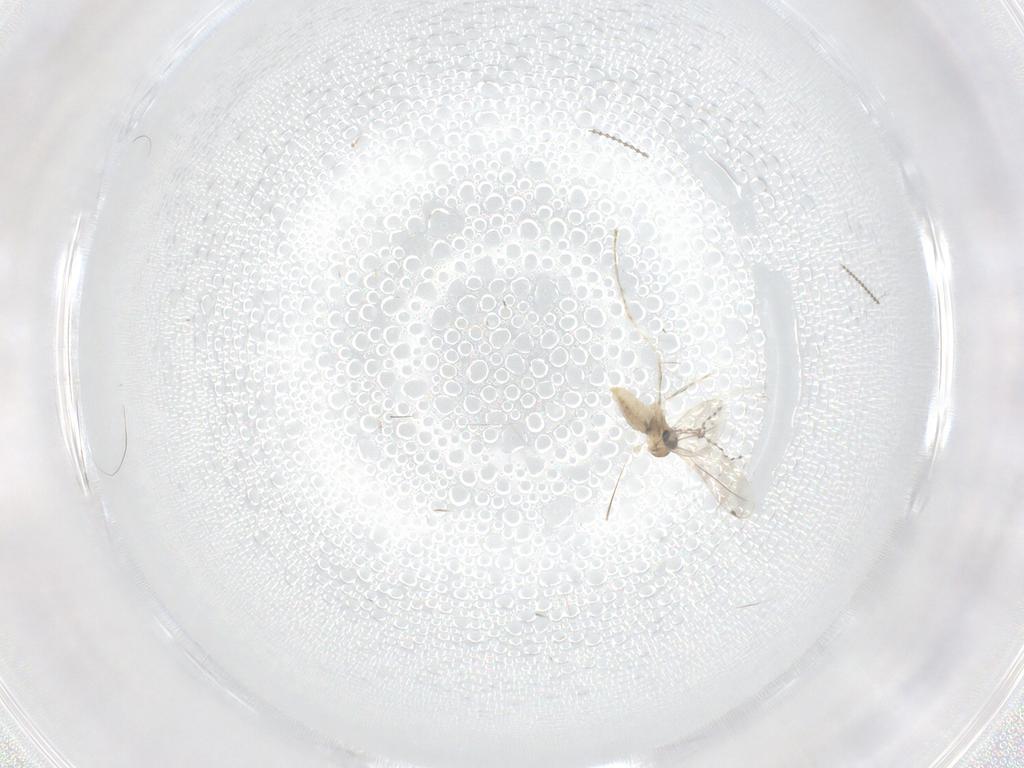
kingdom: Animalia
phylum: Arthropoda
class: Insecta
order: Diptera
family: Cecidomyiidae
